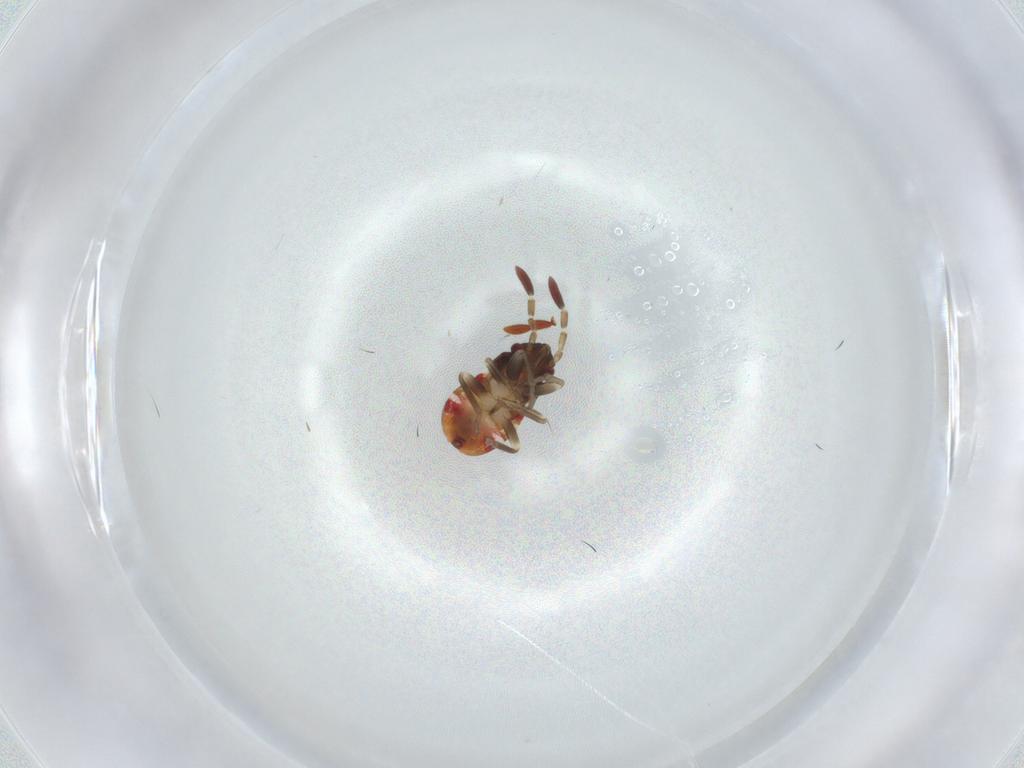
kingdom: Animalia
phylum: Arthropoda
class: Insecta
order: Hemiptera
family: Rhyparochromidae
